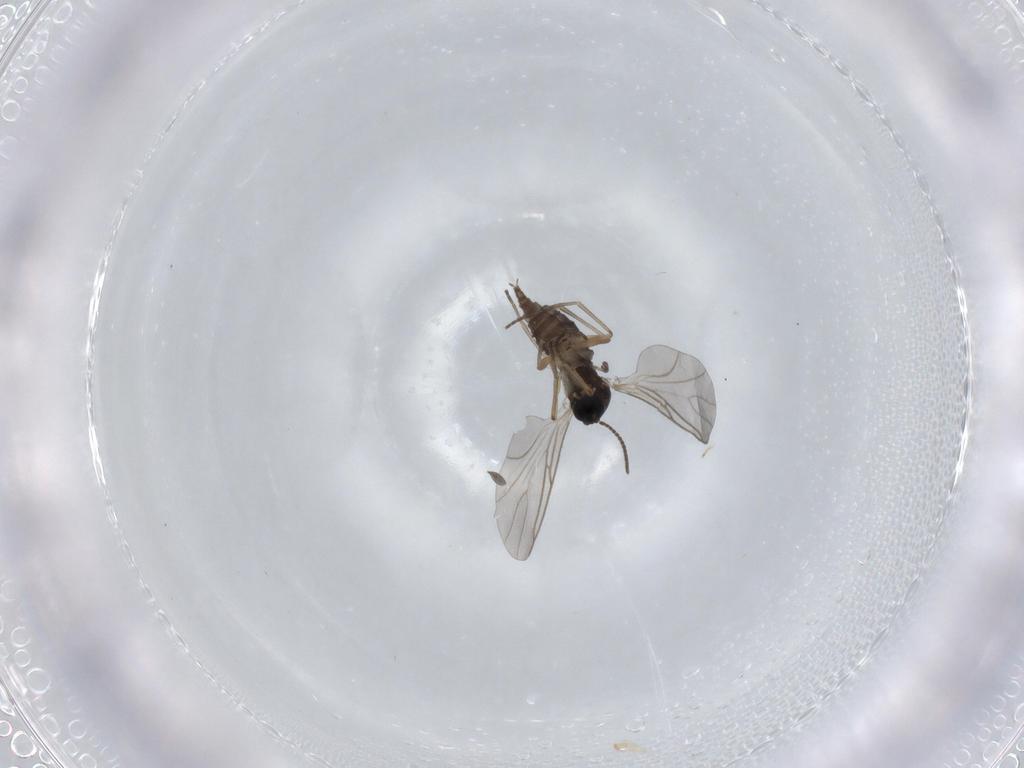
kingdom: Animalia
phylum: Arthropoda
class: Insecta
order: Diptera
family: Sciaridae
